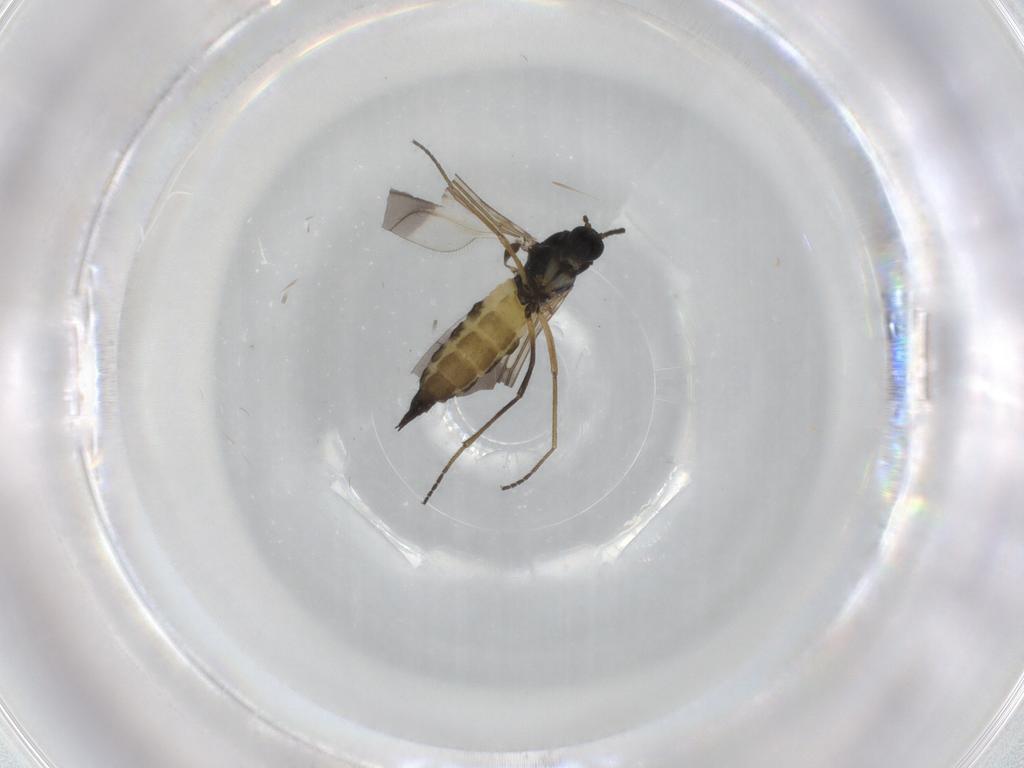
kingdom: Animalia
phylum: Arthropoda
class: Insecta
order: Diptera
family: Sciaridae
